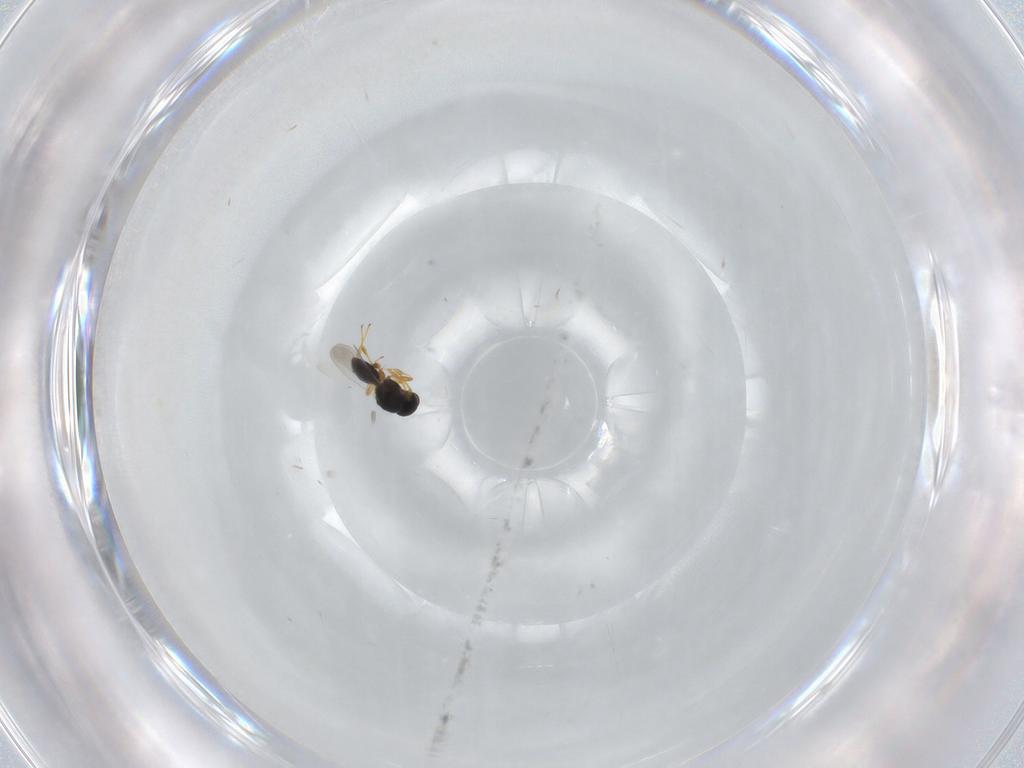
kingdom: Animalia
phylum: Arthropoda
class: Insecta
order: Hymenoptera
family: Platygastridae
